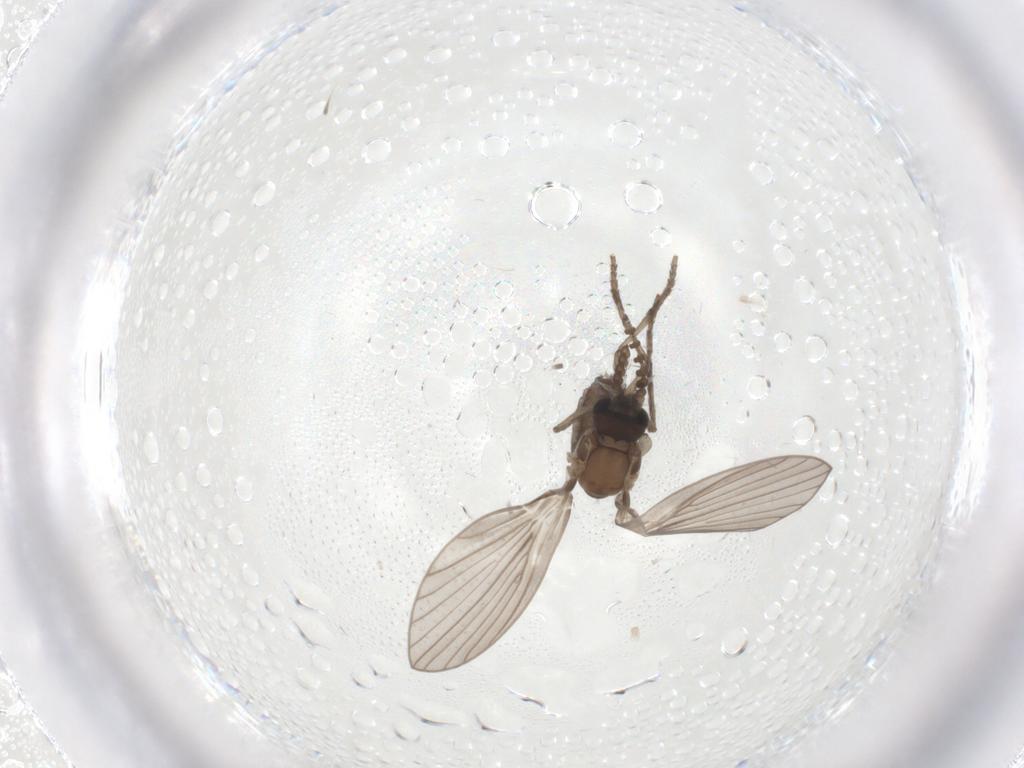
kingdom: Animalia
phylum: Arthropoda
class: Insecta
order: Diptera
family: Psychodidae
